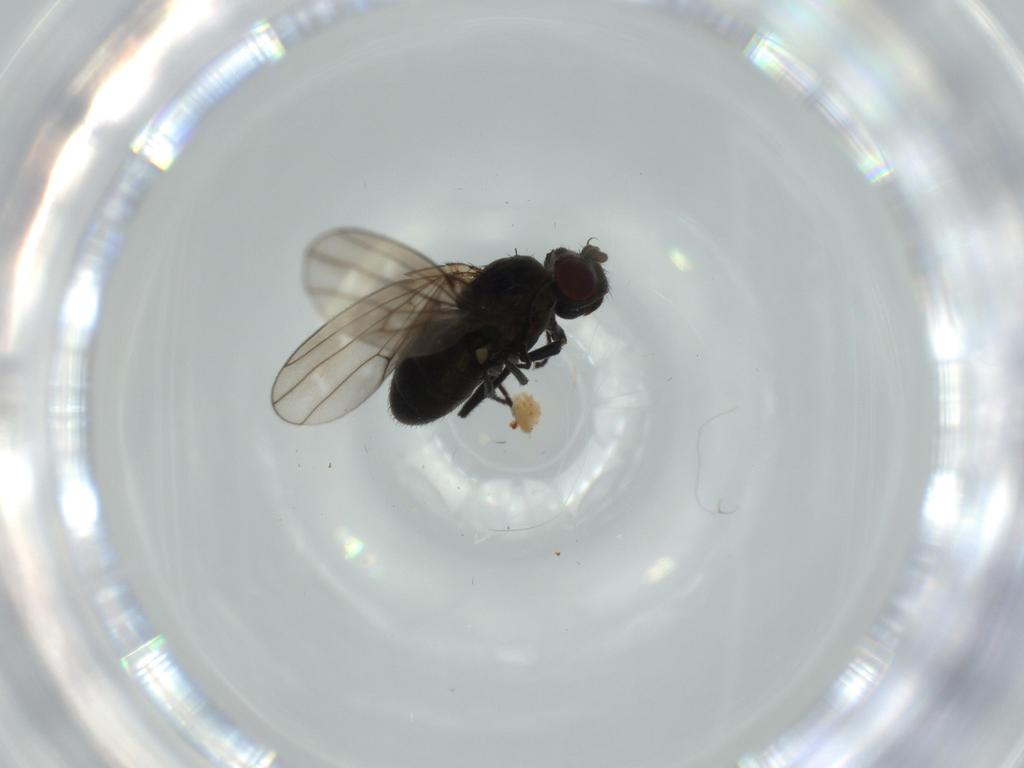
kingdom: Animalia
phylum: Arthropoda
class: Insecta
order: Diptera
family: Ephydridae
